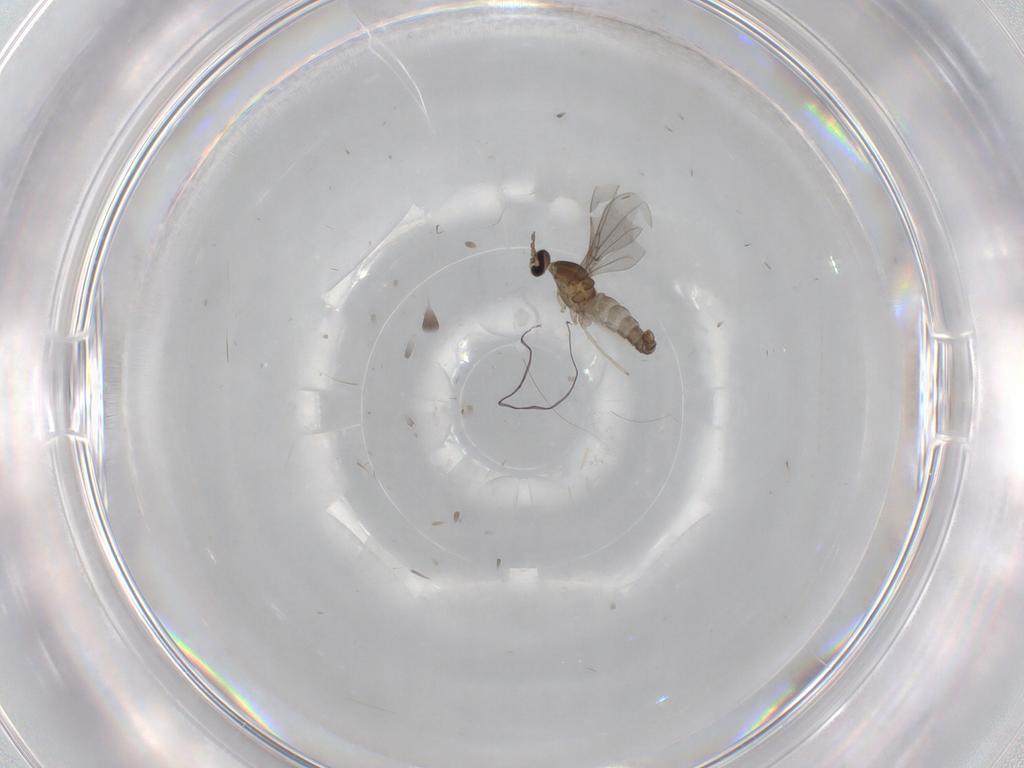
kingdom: Animalia
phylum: Arthropoda
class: Insecta
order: Diptera
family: Cecidomyiidae
